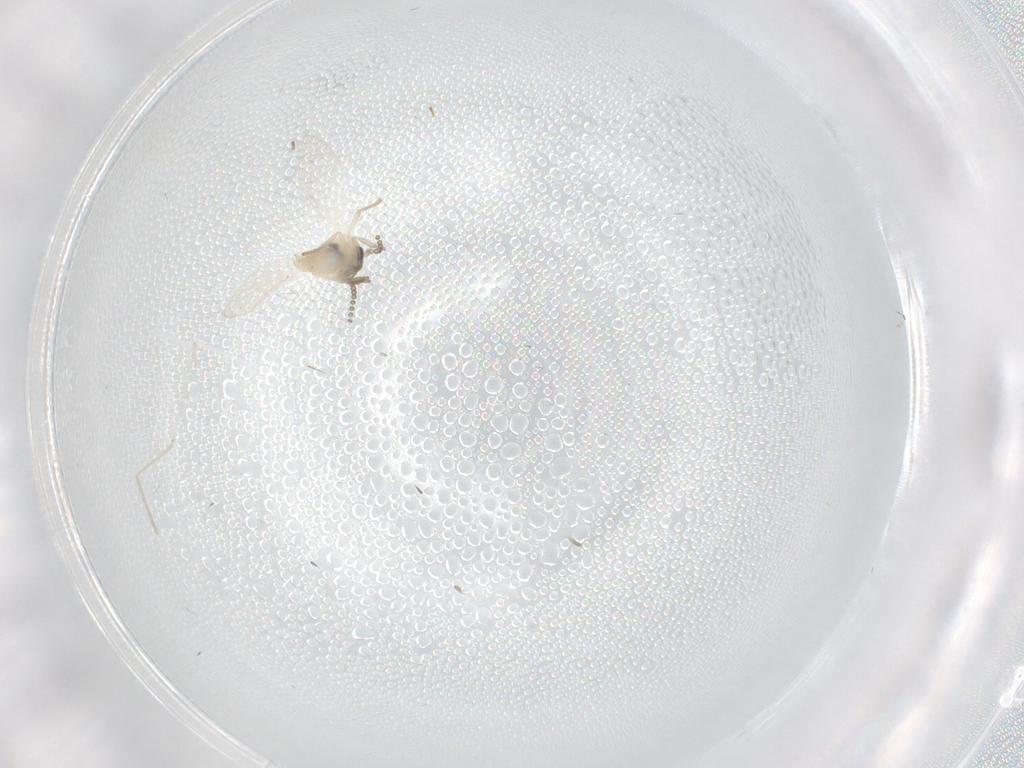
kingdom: Animalia
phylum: Arthropoda
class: Insecta
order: Diptera
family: Psychodidae
